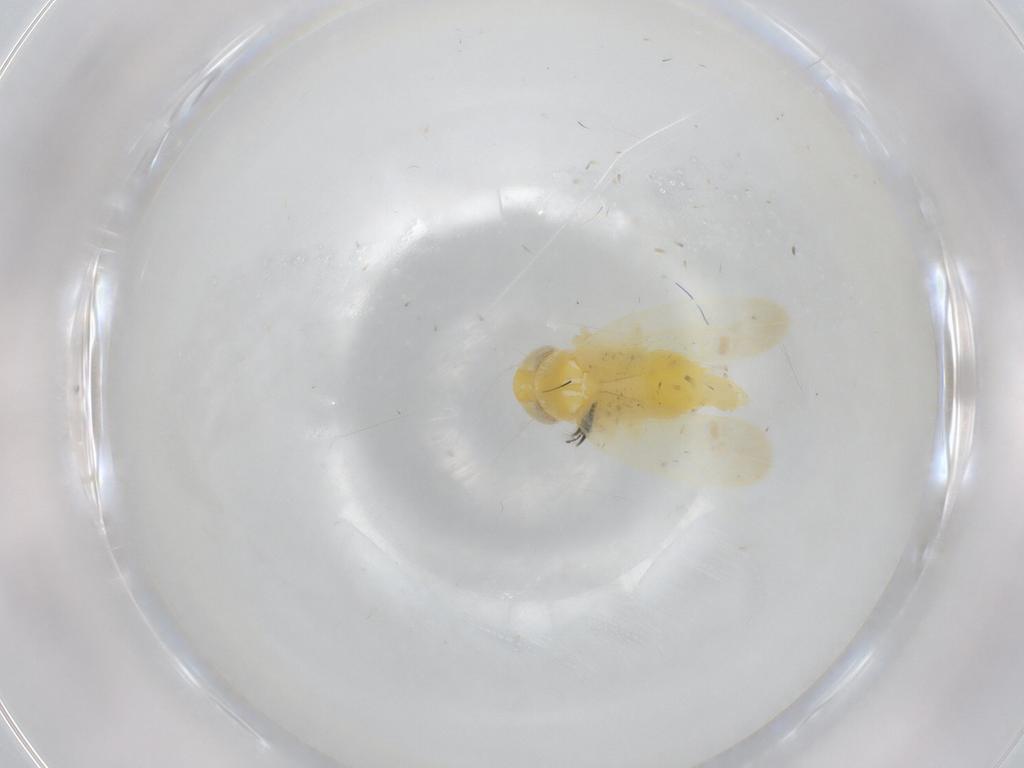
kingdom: Animalia
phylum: Arthropoda
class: Insecta
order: Hemiptera
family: Cicadellidae
